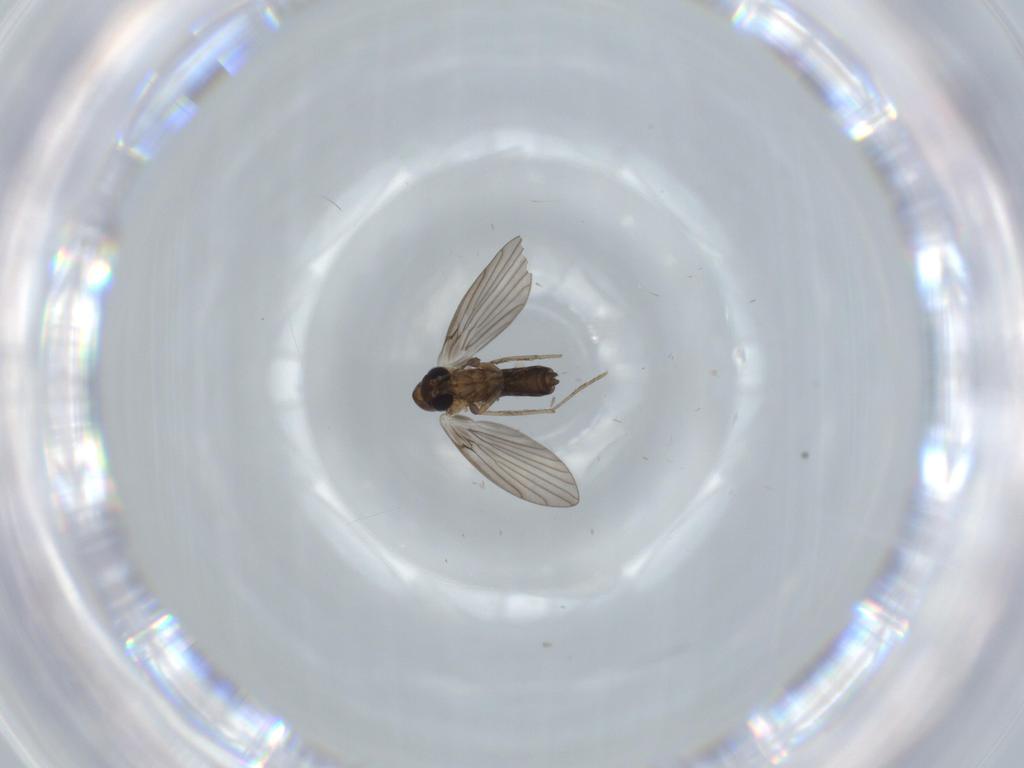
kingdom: Animalia
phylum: Arthropoda
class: Insecta
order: Diptera
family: Psychodidae
